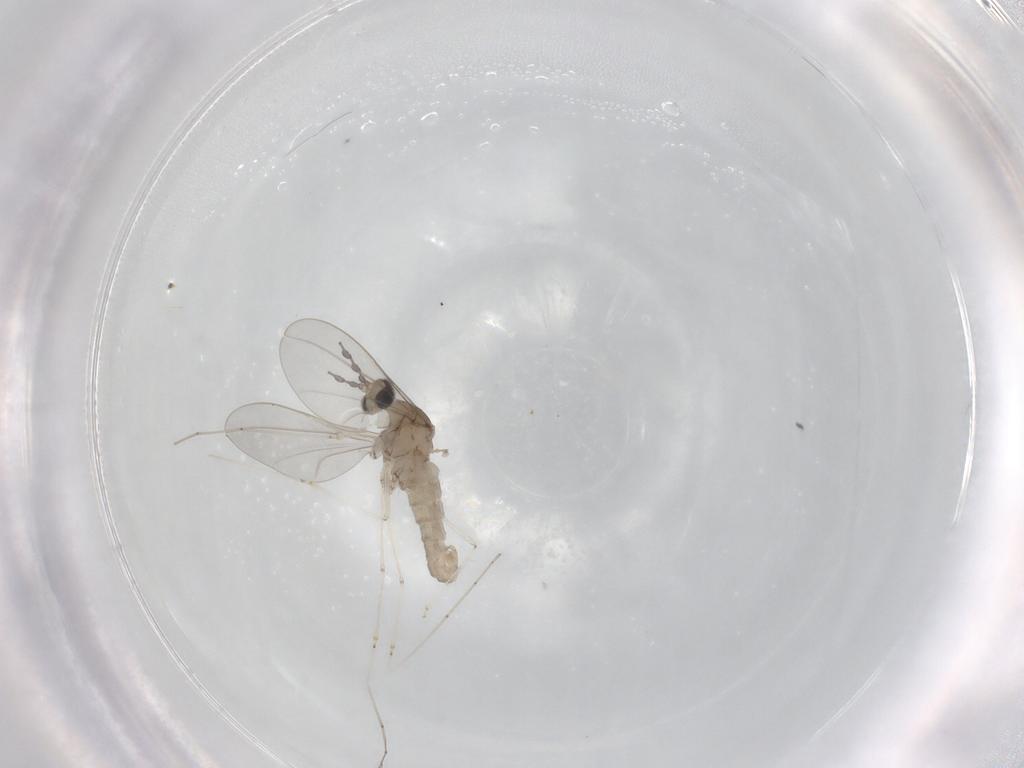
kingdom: Animalia
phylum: Arthropoda
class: Insecta
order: Diptera
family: Cecidomyiidae
